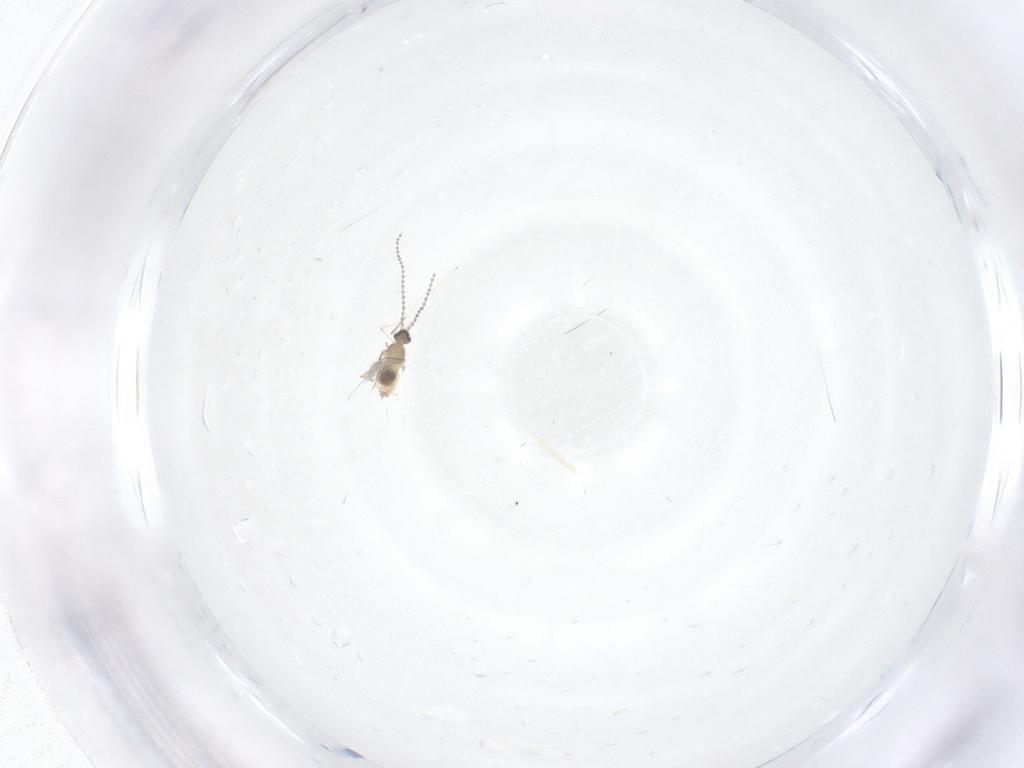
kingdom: Animalia
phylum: Arthropoda
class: Insecta
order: Diptera
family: Cecidomyiidae
